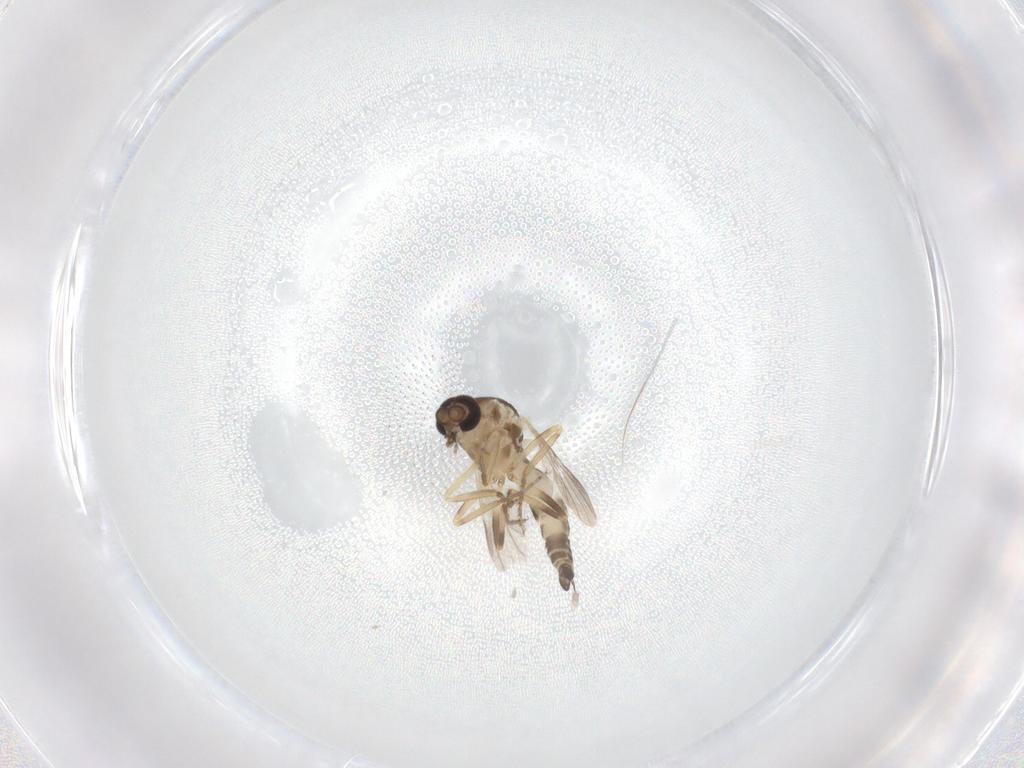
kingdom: Animalia
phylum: Arthropoda
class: Insecta
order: Diptera
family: Ceratopogonidae
